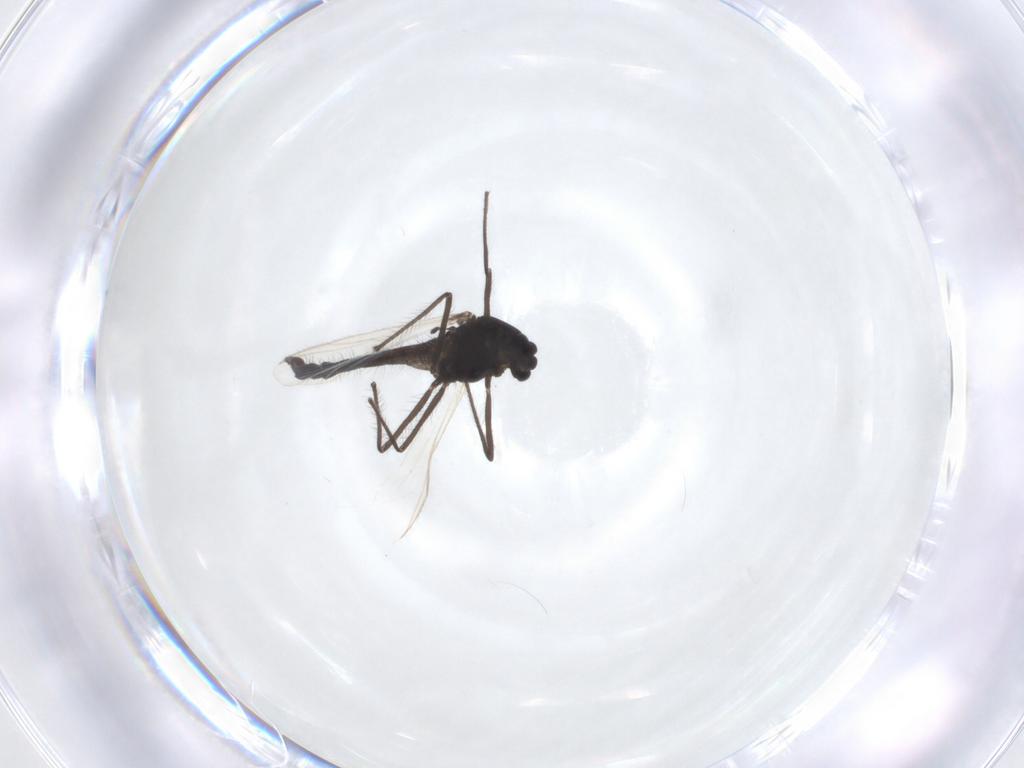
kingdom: Animalia
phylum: Arthropoda
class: Insecta
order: Diptera
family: Chironomidae
